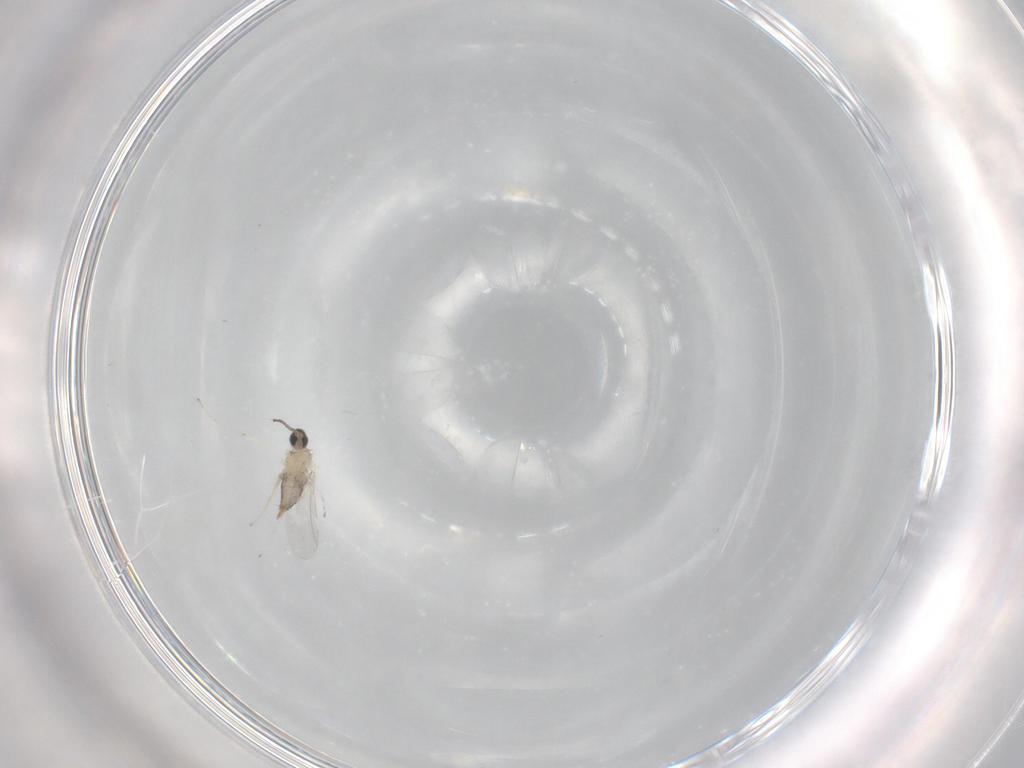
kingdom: Animalia
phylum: Arthropoda
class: Insecta
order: Diptera
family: Cecidomyiidae
